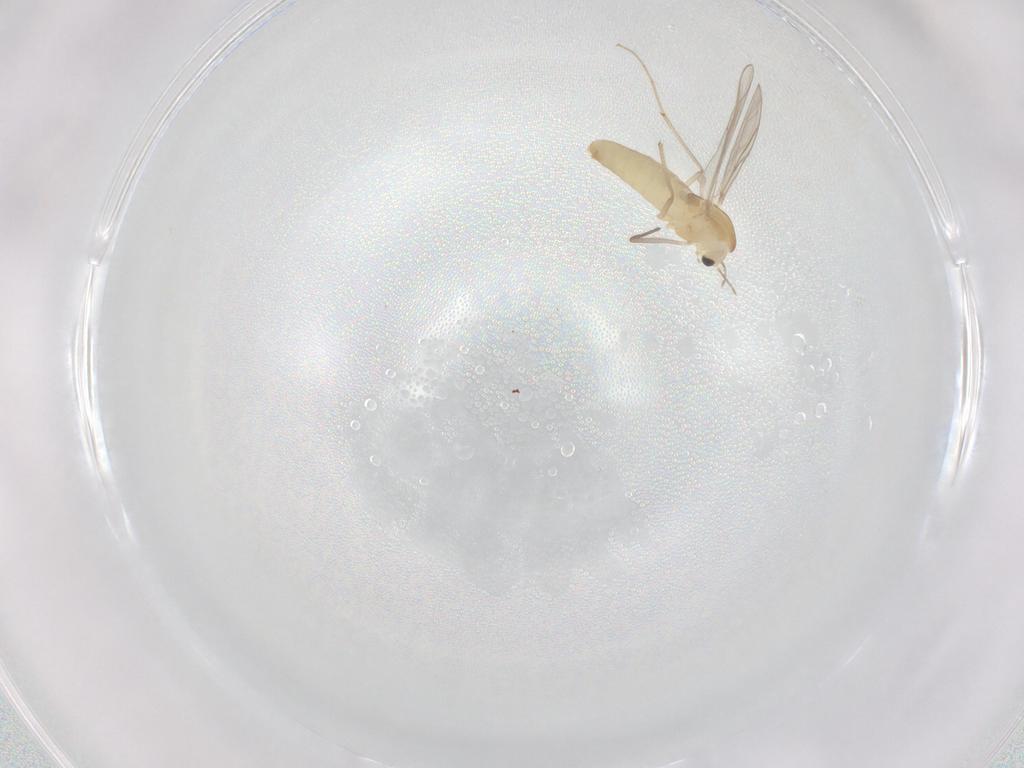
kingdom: Animalia
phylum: Arthropoda
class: Insecta
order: Diptera
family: Chironomidae
